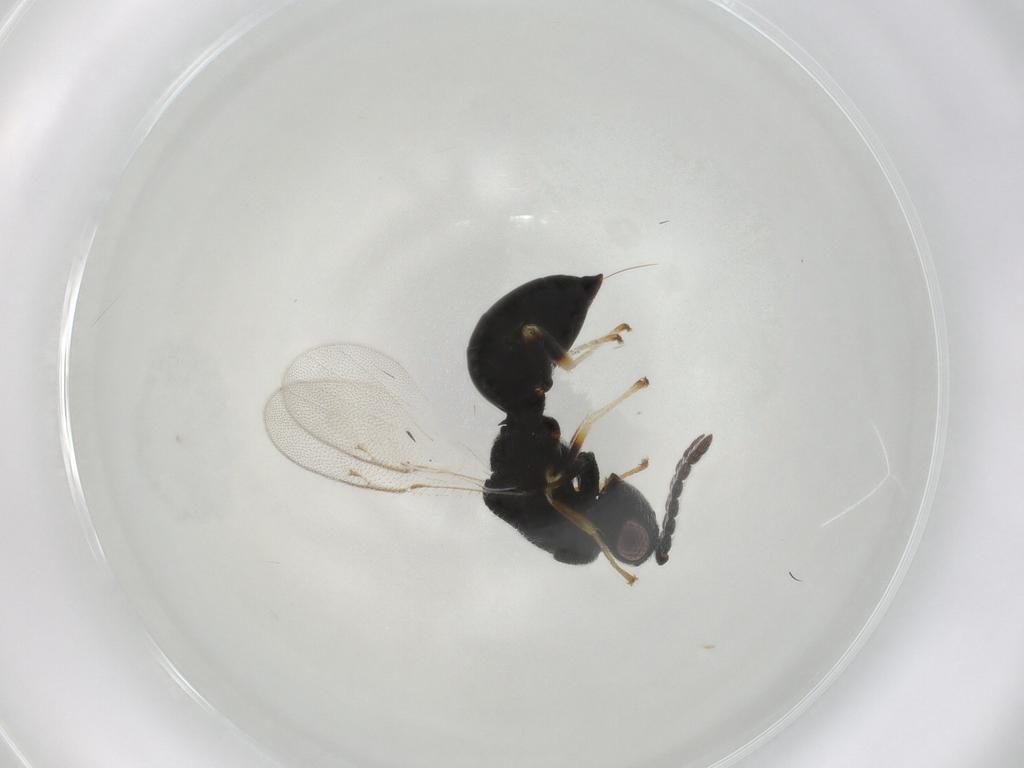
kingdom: Animalia
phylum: Arthropoda
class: Insecta
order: Hymenoptera
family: Eurytomidae
